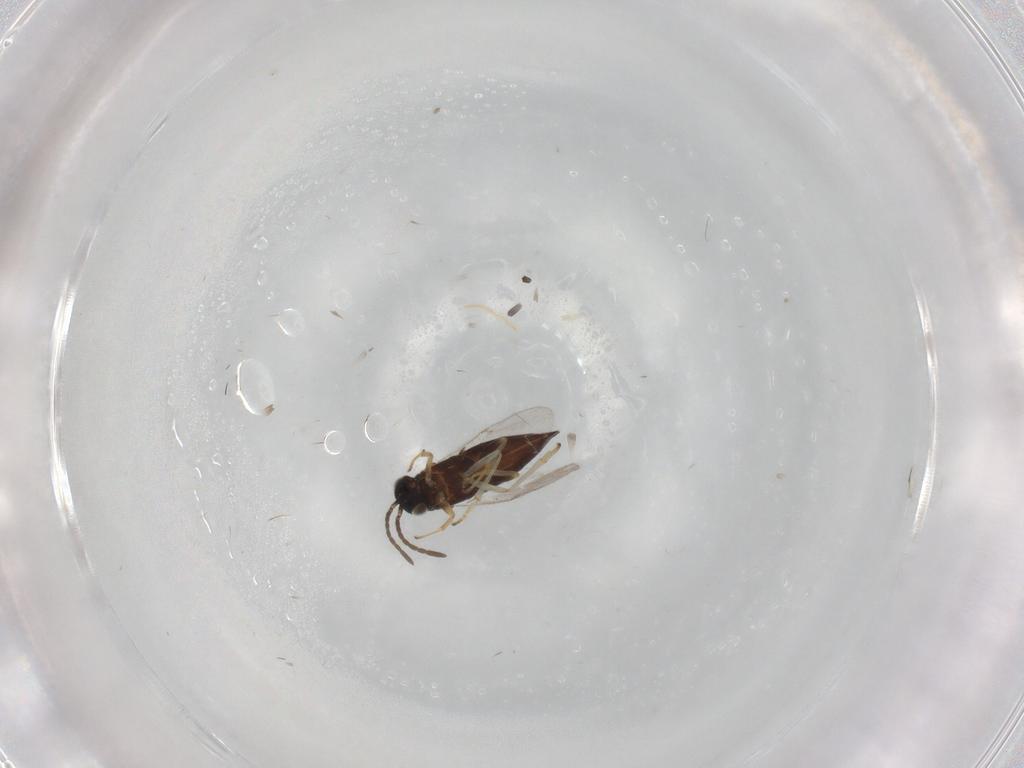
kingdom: Animalia
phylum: Arthropoda
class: Insecta
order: Hymenoptera
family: Encyrtidae
